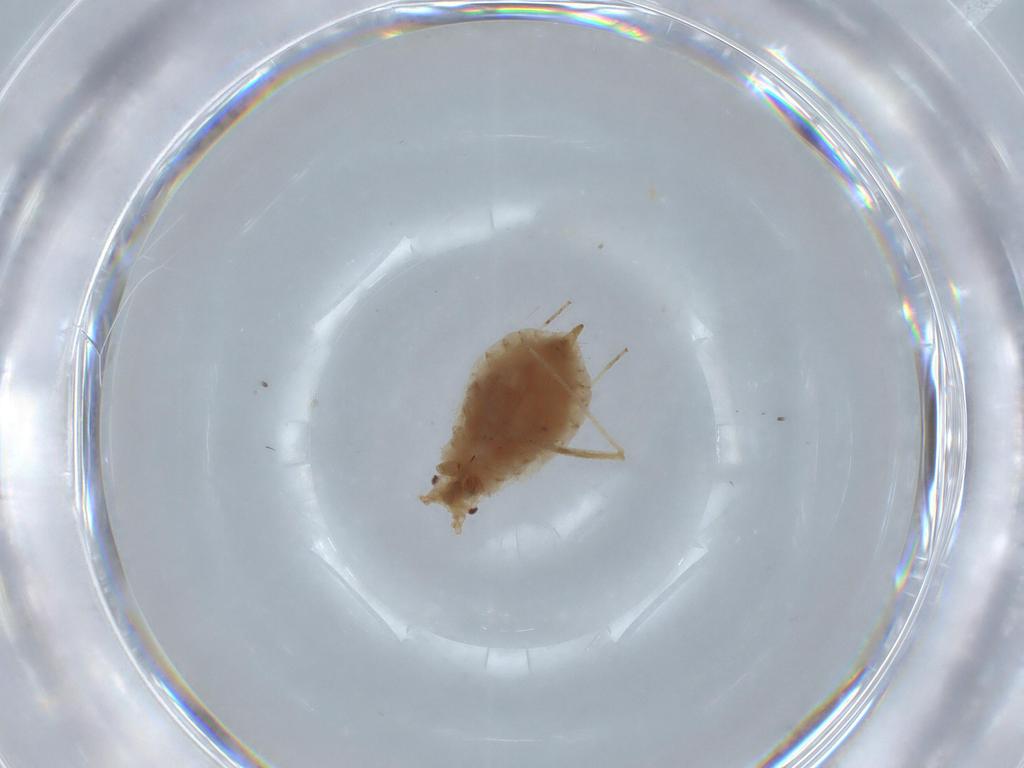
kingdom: Animalia
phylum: Arthropoda
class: Insecta
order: Hemiptera
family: Aphididae
